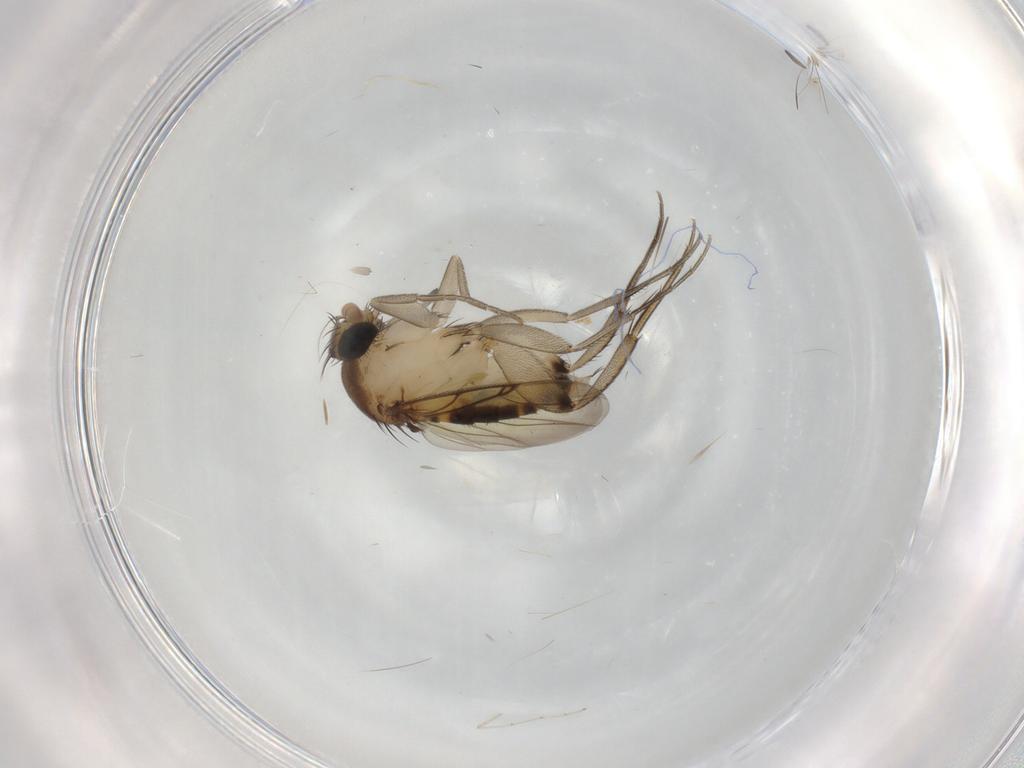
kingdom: Animalia
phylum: Arthropoda
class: Insecta
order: Diptera
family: Phoridae
